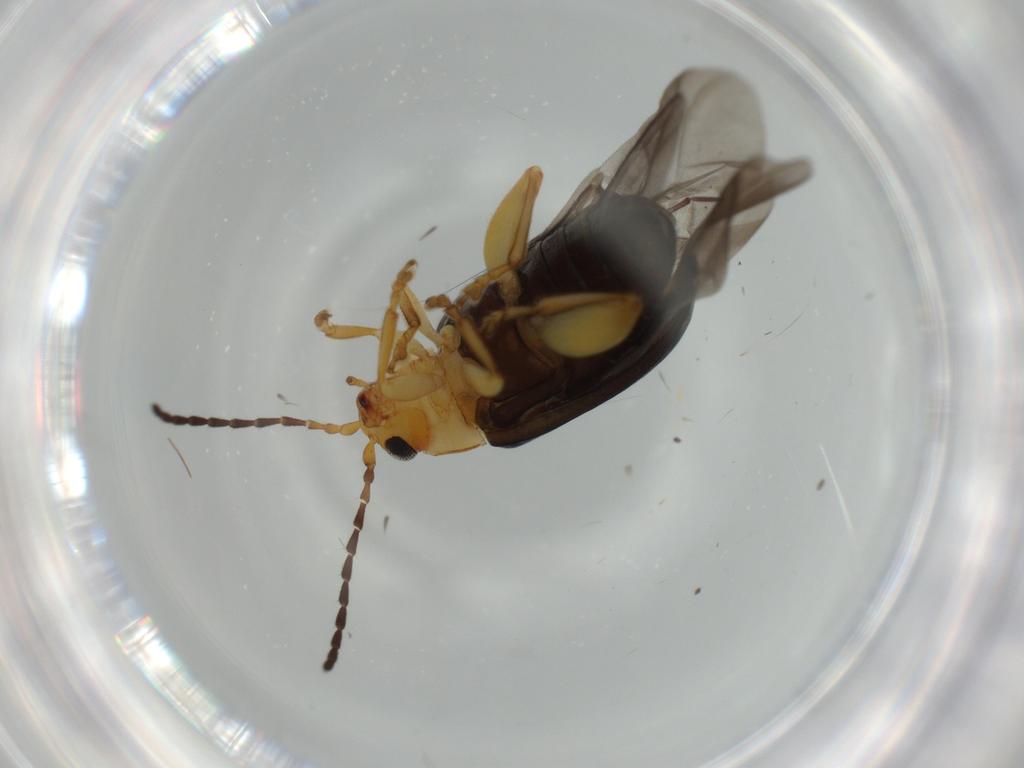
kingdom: Animalia
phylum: Arthropoda
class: Insecta
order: Coleoptera
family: Chrysomelidae
